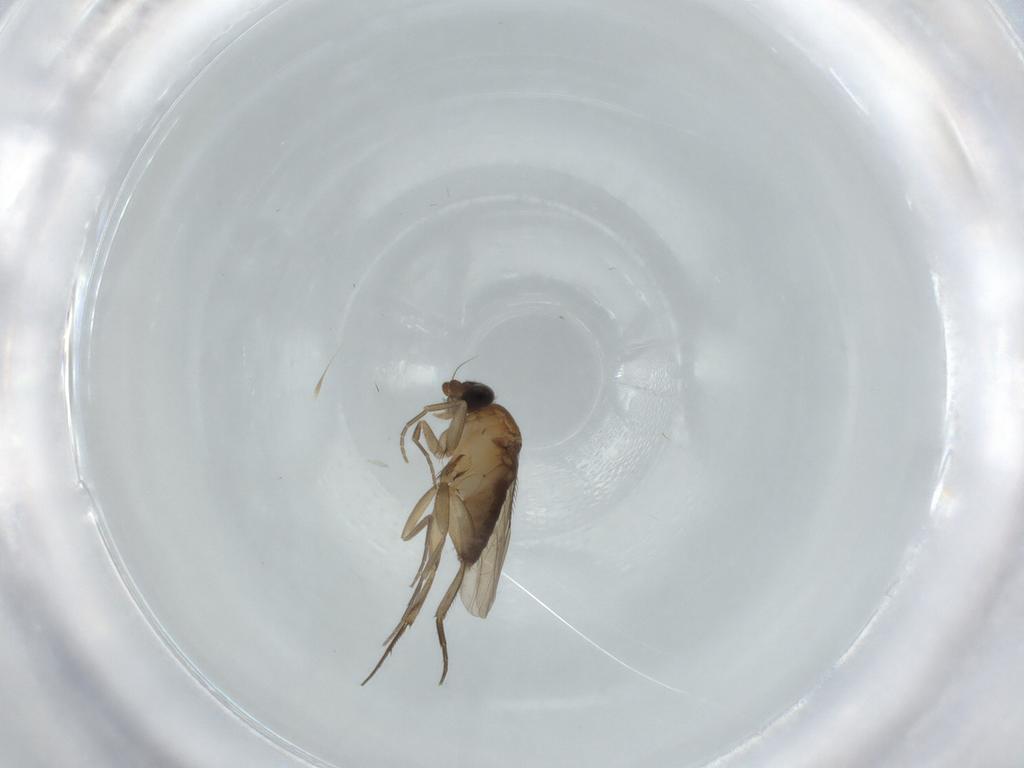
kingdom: Animalia
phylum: Arthropoda
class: Insecta
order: Diptera
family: Phoridae
